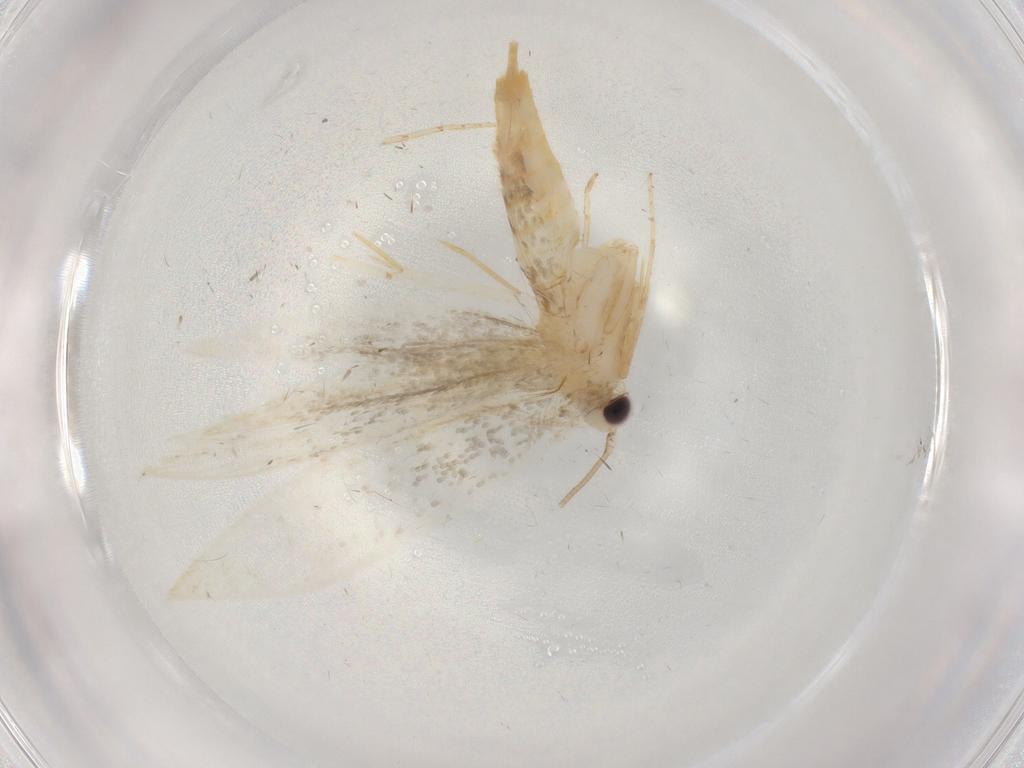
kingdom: Animalia
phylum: Arthropoda
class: Insecta
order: Lepidoptera
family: Tineidae
